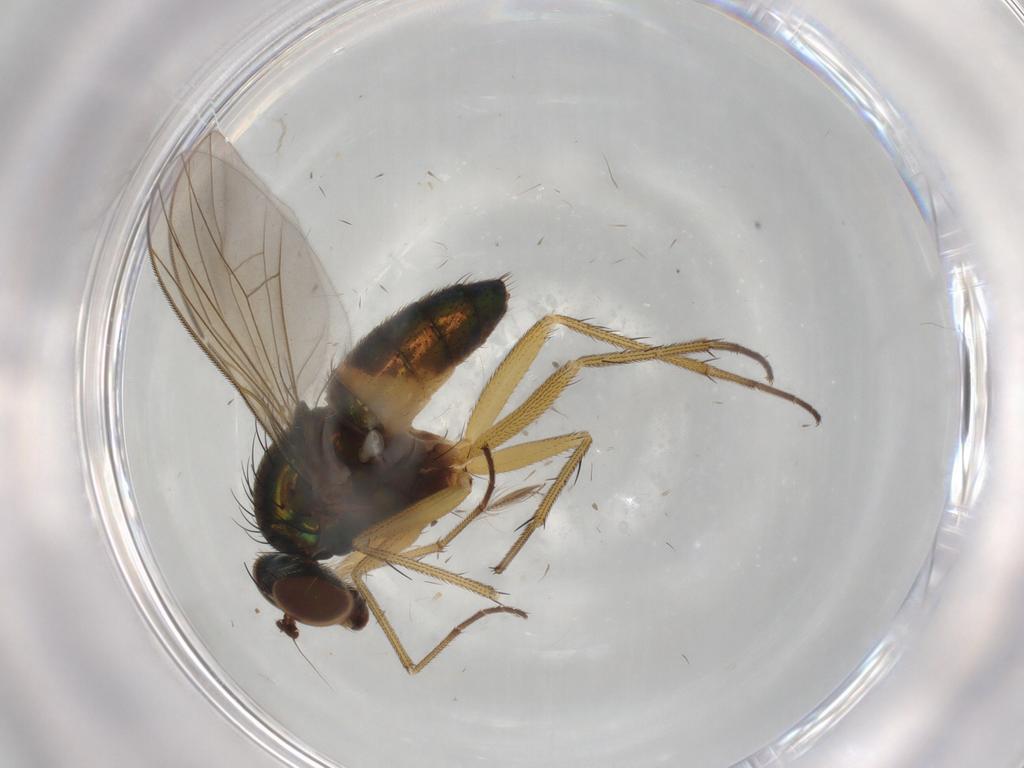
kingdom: Animalia
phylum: Arthropoda
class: Insecta
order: Diptera
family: Ceratopogonidae
